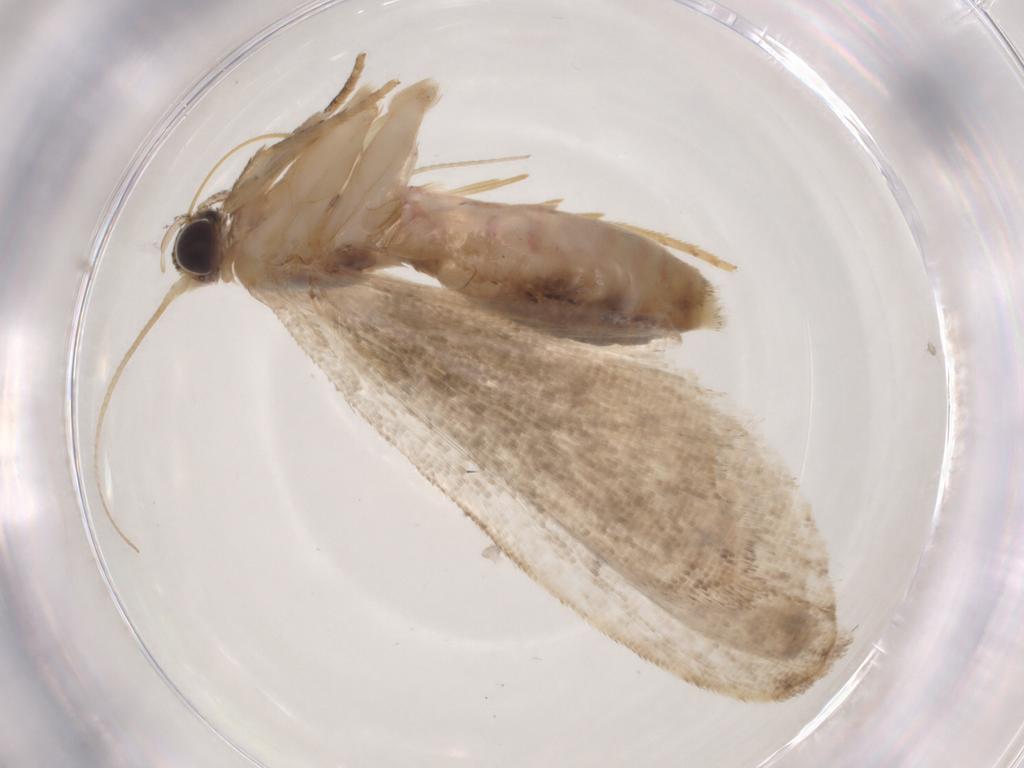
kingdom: Animalia
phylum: Arthropoda
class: Insecta
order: Lepidoptera
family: Erebidae
